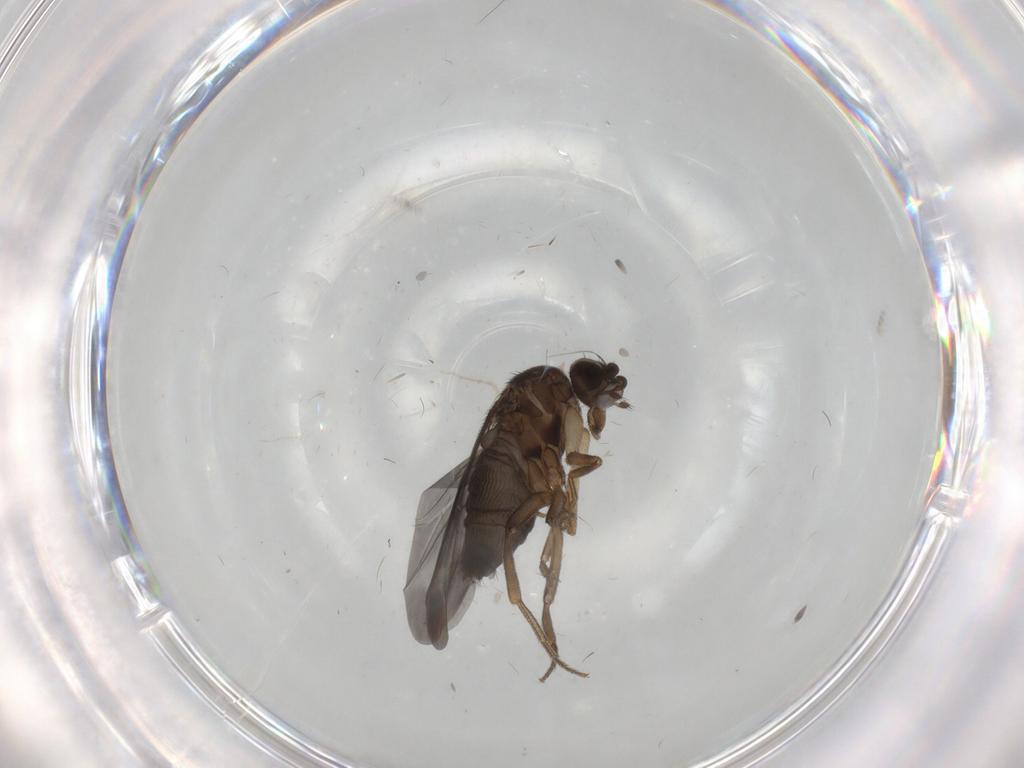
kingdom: Animalia
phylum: Arthropoda
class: Insecta
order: Diptera
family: Phoridae
